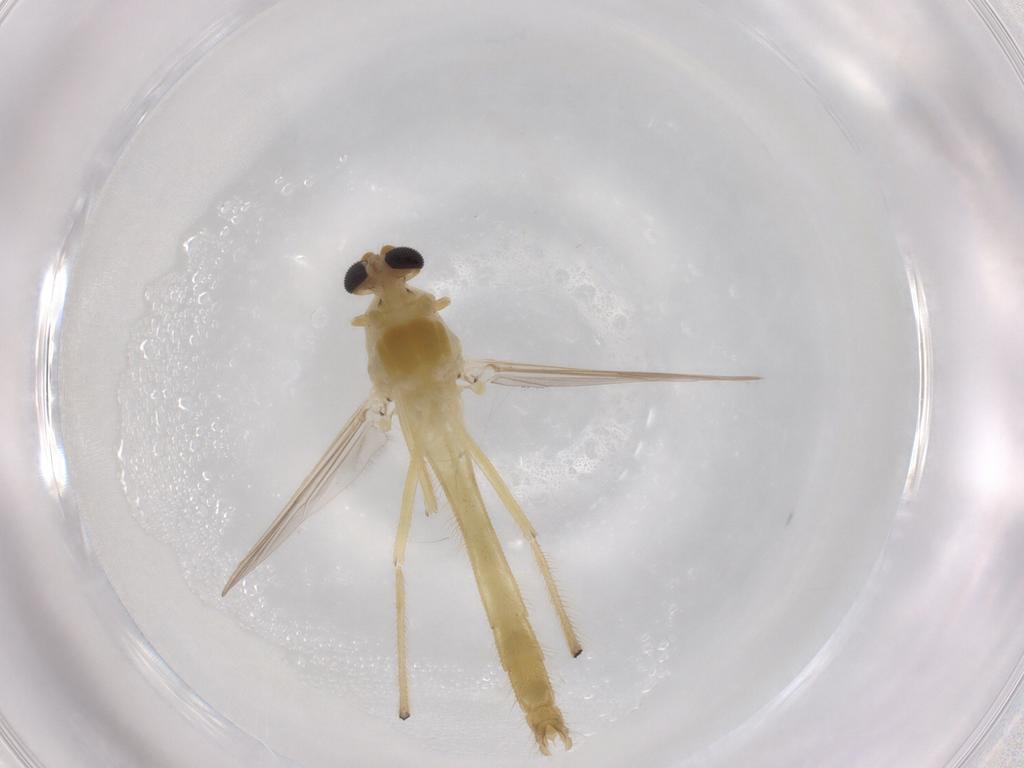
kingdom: Animalia
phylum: Arthropoda
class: Insecta
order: Diptera
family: Chironomidae
